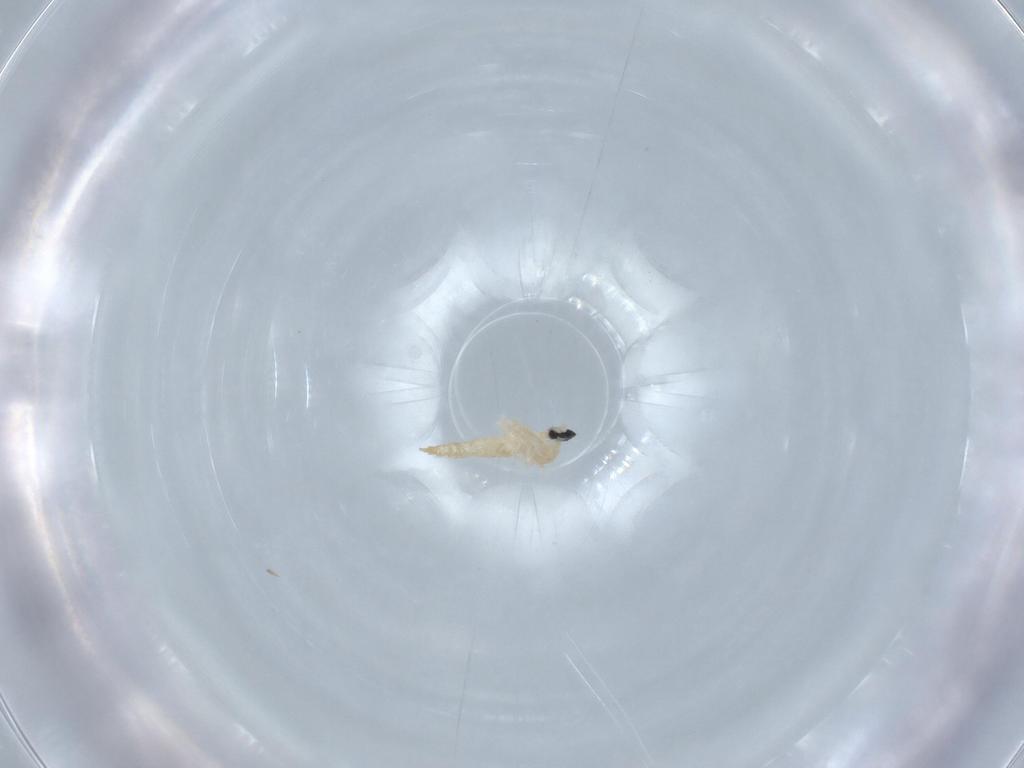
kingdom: Animalia
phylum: Arthropoda
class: Insecta
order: Diptera
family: Cecidomyiidae
